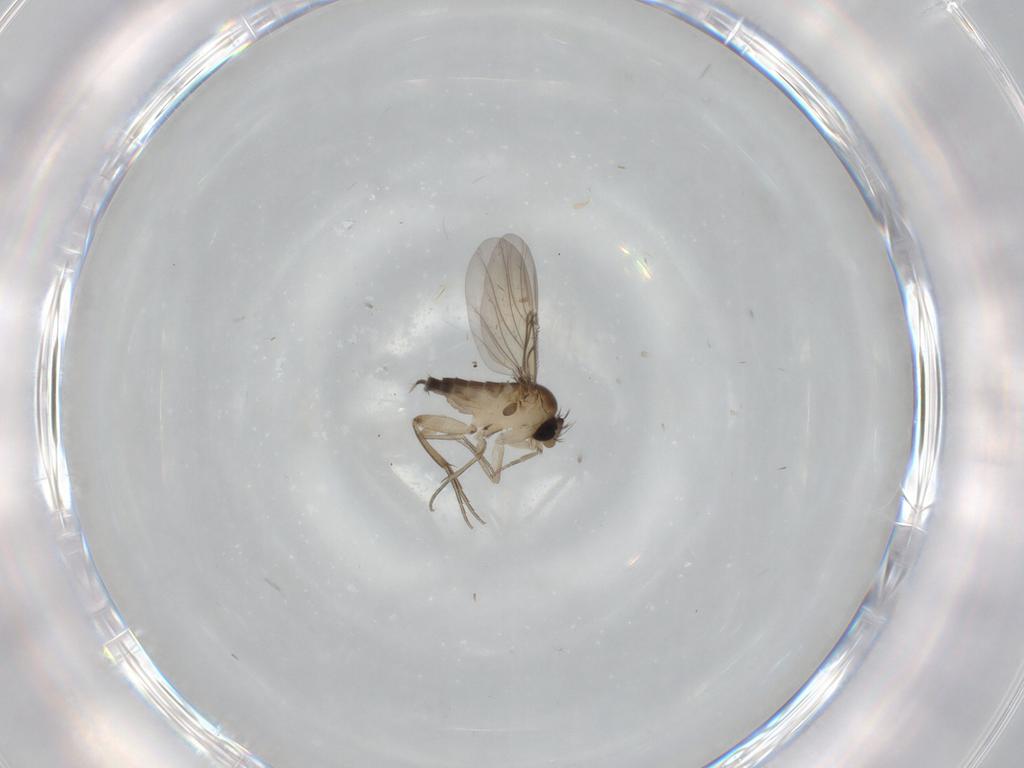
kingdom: Animalia
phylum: Arthropoda
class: Insecta
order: Diptera
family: Phoridae
